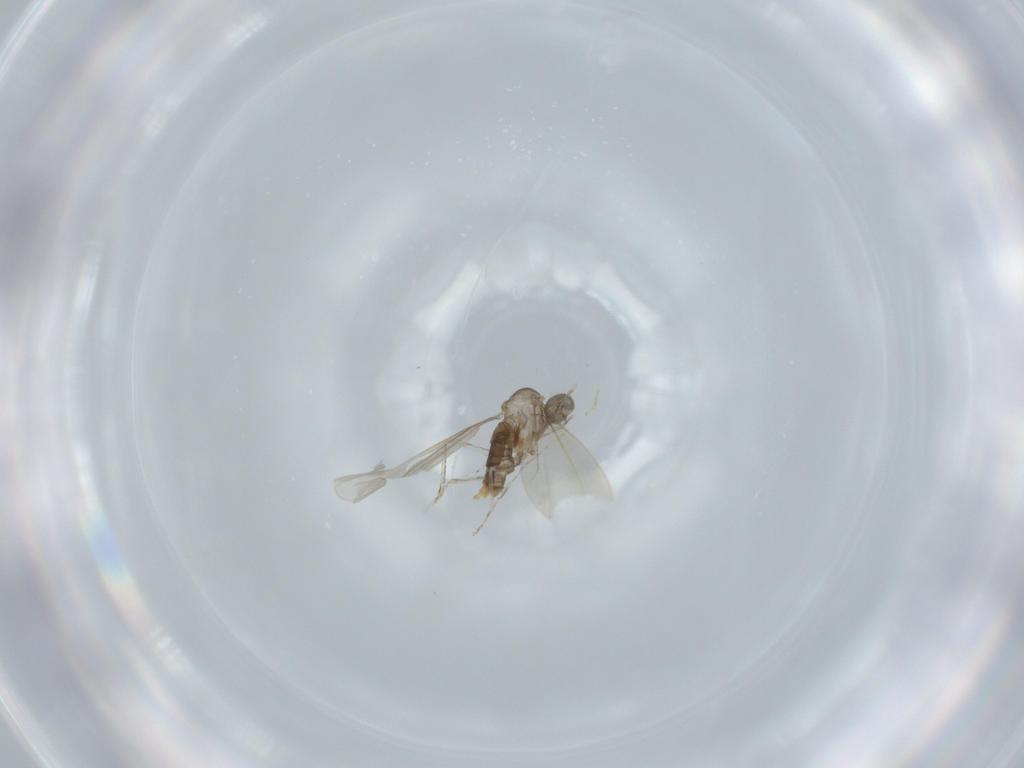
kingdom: Animalia
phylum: Arthropoda
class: Insecta
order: Diptera
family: Cecidomyiidae
